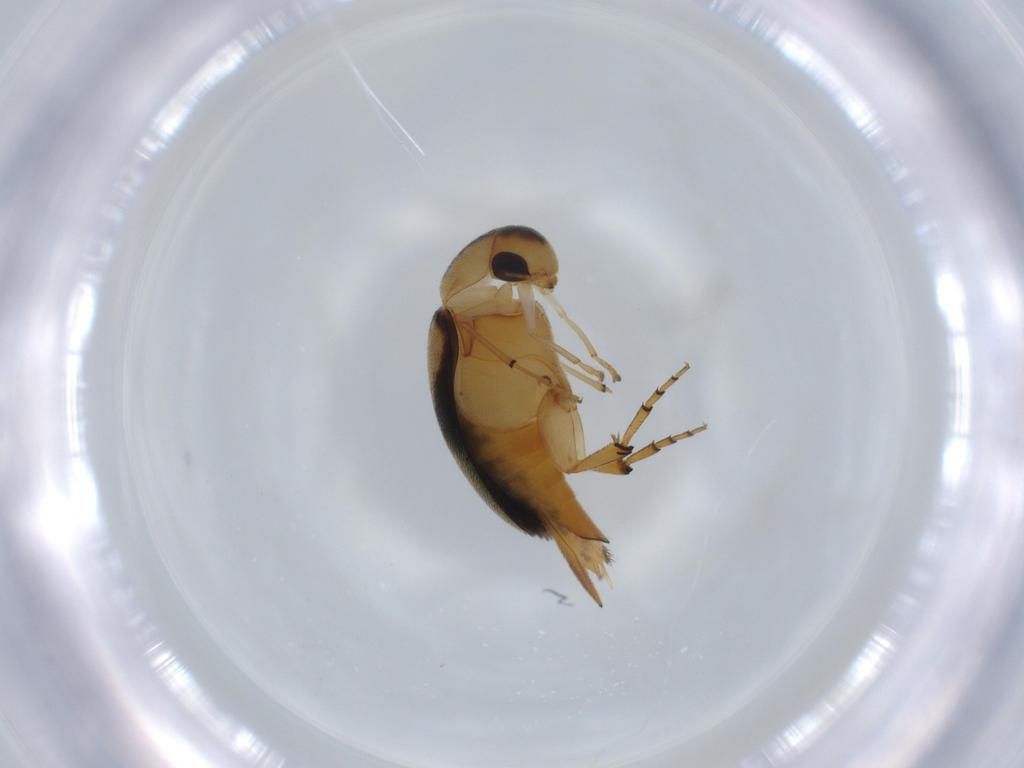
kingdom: Animalia
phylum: Arthropoda
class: Insecta
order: Coleoptera
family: Mordellidae
